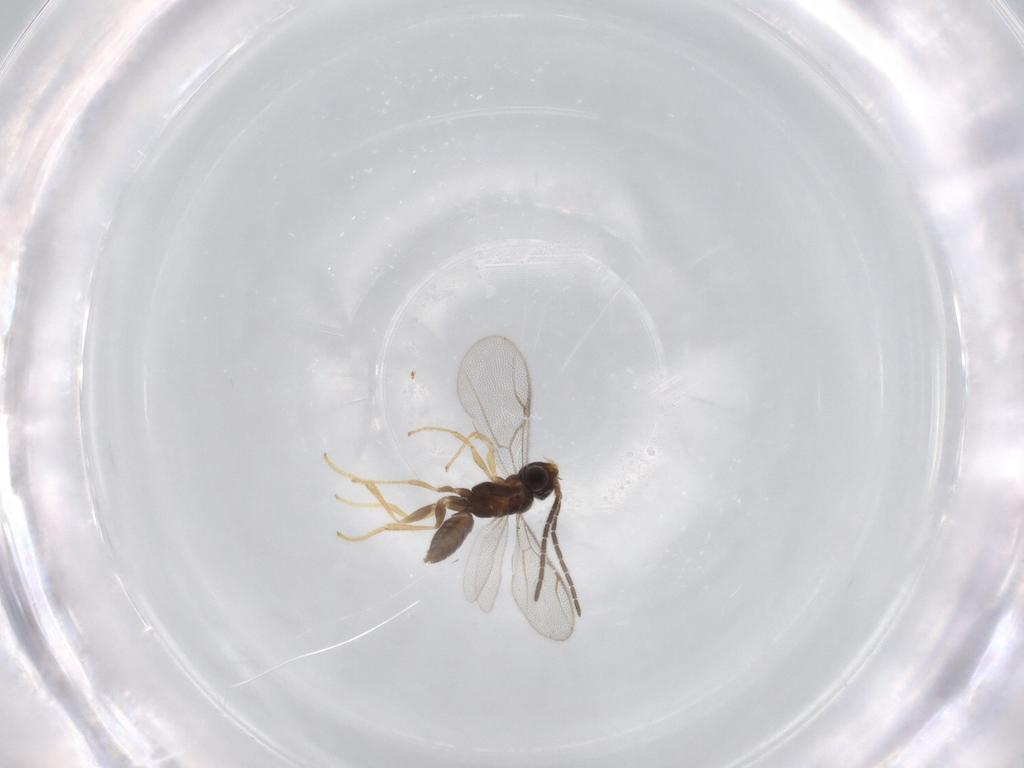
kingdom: Animalia
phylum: Arthropoda
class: Insecta
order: Hymenoptera
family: Dryinidae
